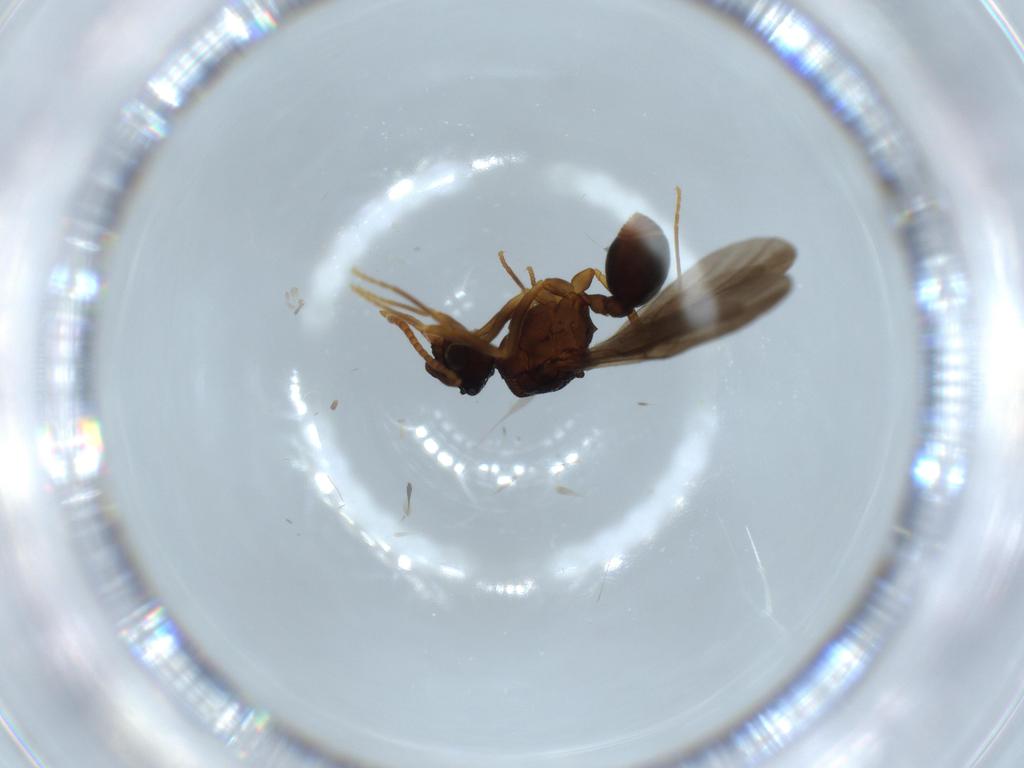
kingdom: Animalia
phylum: Arthropoda
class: Insecta
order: Hymenoptera
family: Formicidae
